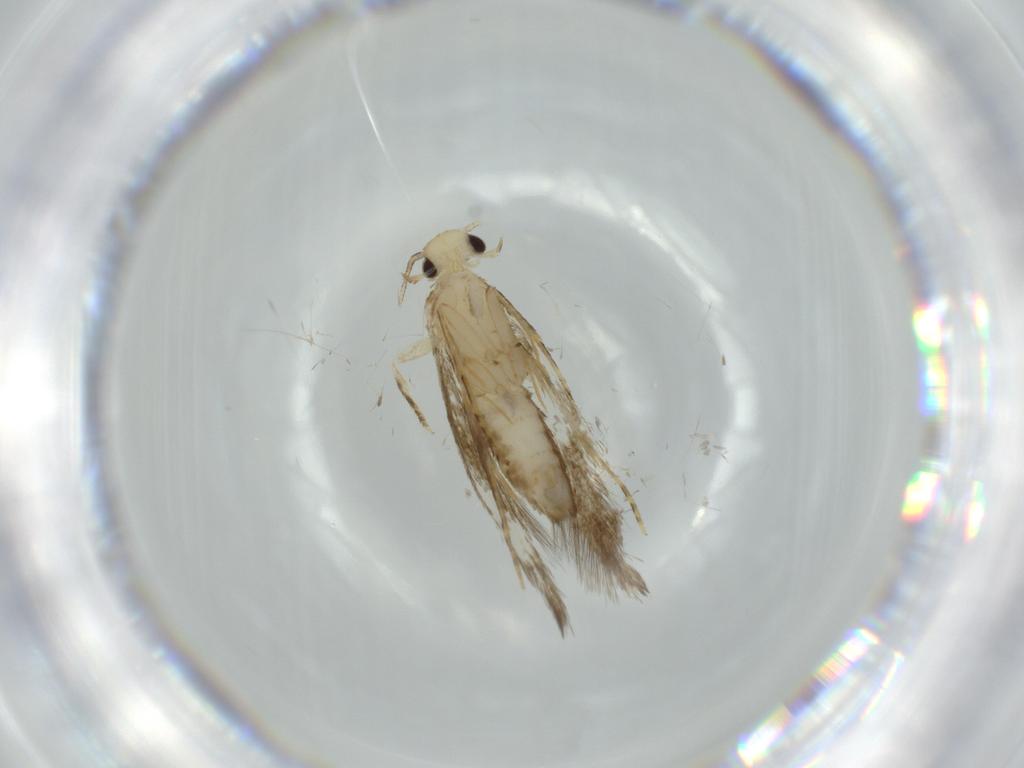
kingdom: Animalia
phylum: Arthropoda
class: Insecta
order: Lepidoptera
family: Tineidae
